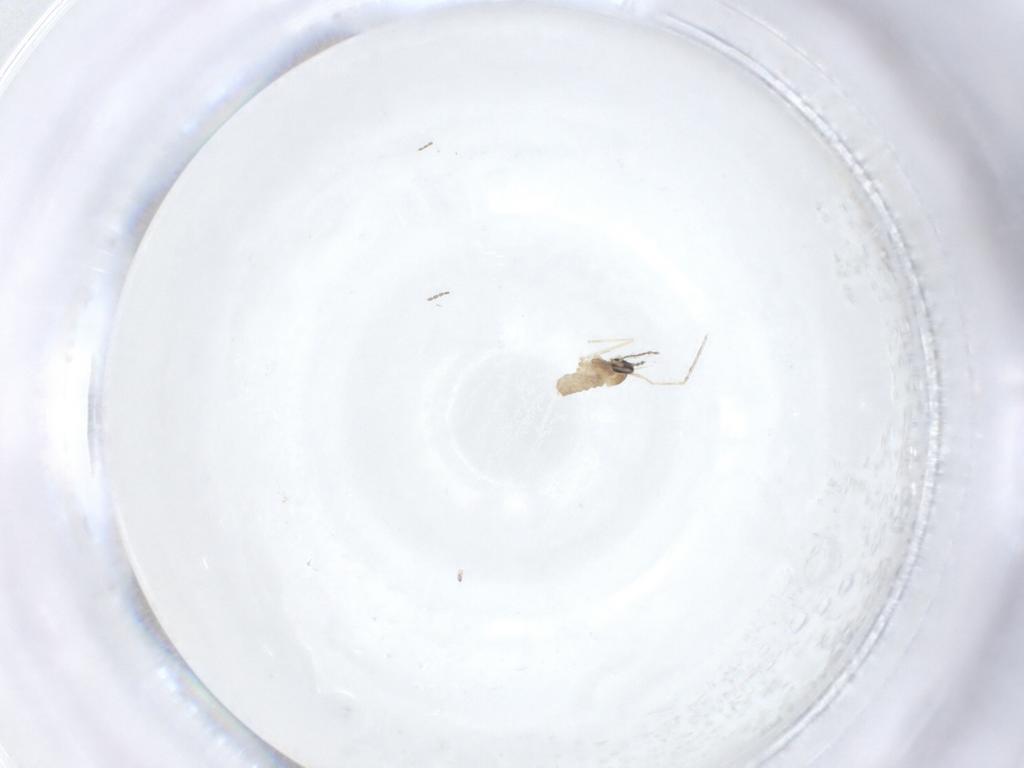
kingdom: Animalia
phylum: Arthropoda
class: Insecta
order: Diptera
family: Cecidomyiidae
